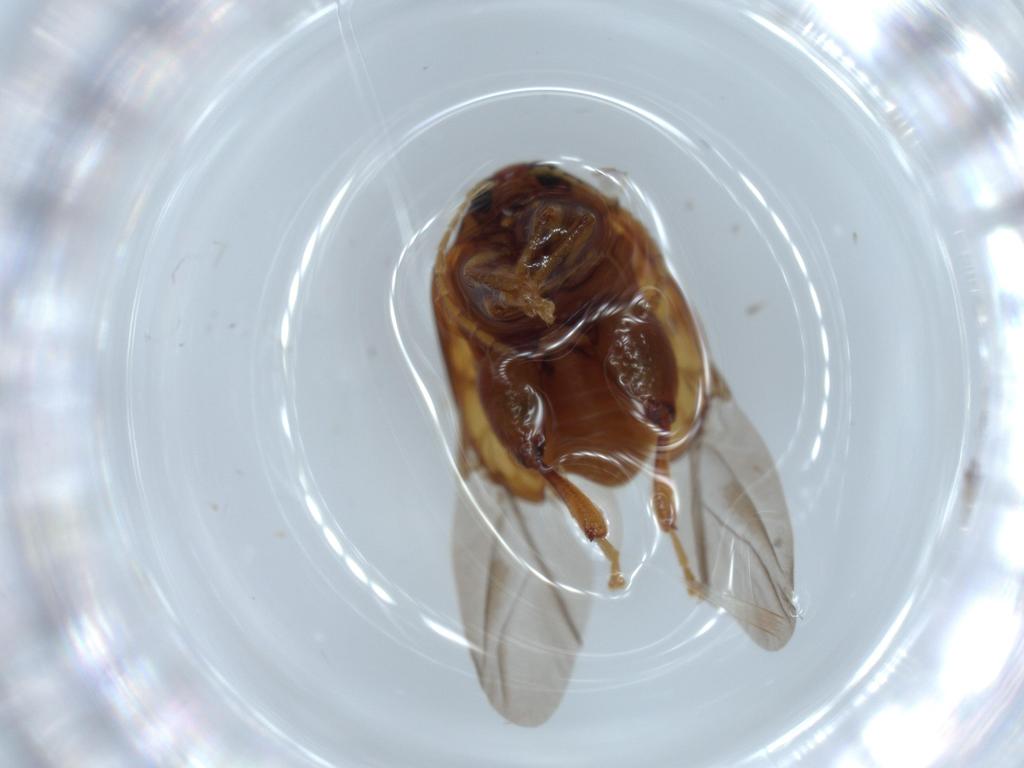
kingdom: Animalia
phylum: Arthropoda
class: Insecta
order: Coleoptera
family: Chrysomelidae
